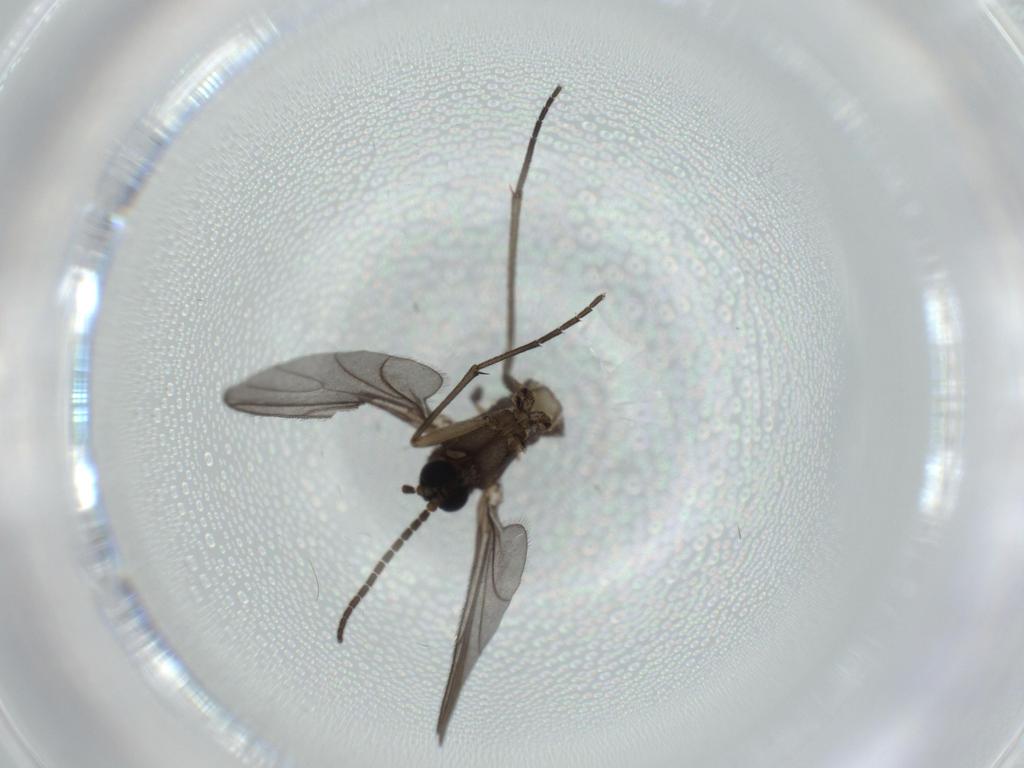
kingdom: Animalia
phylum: Arthropoda
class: Insecta
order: Diptera
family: Sciaridae
